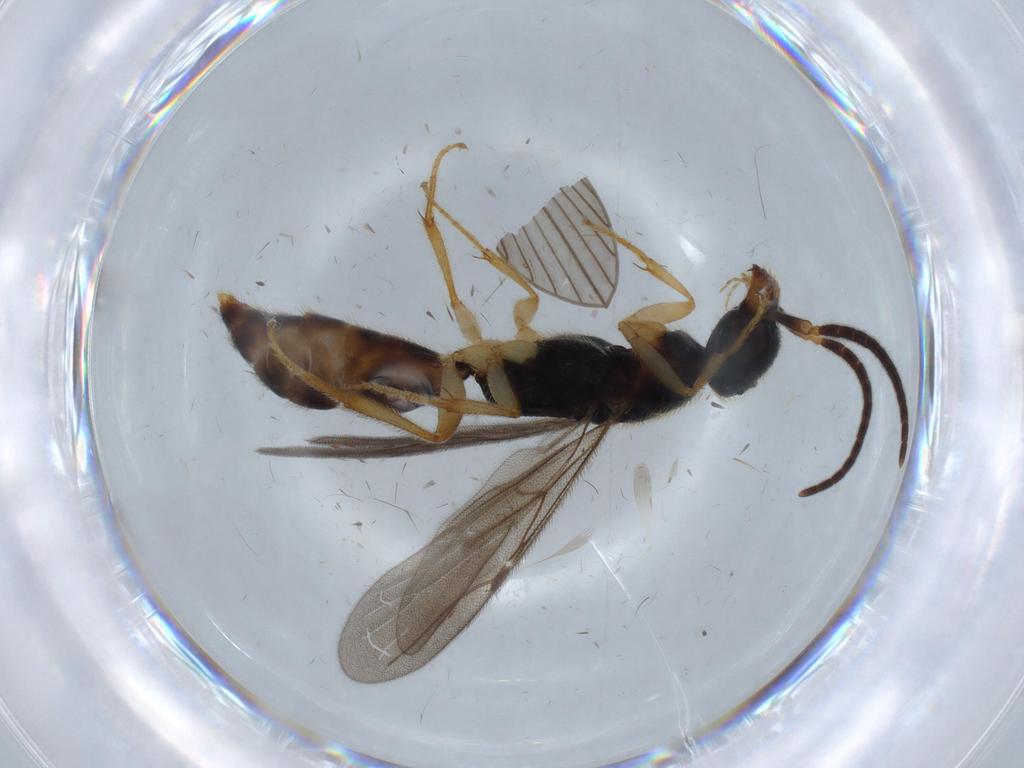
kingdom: Animalia
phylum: Arthropoda
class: Insecta
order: Hymenoptera
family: Bethylidae
